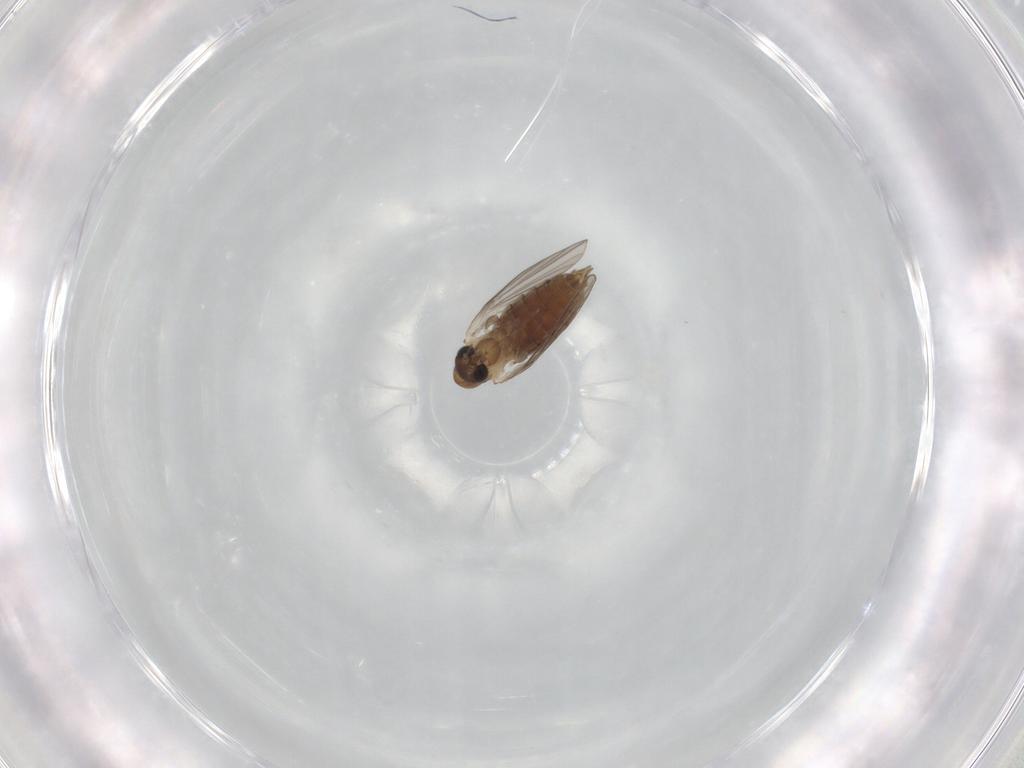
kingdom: Animalia
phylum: Arthropoda
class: Insecta
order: Diptera
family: Psychodidae
